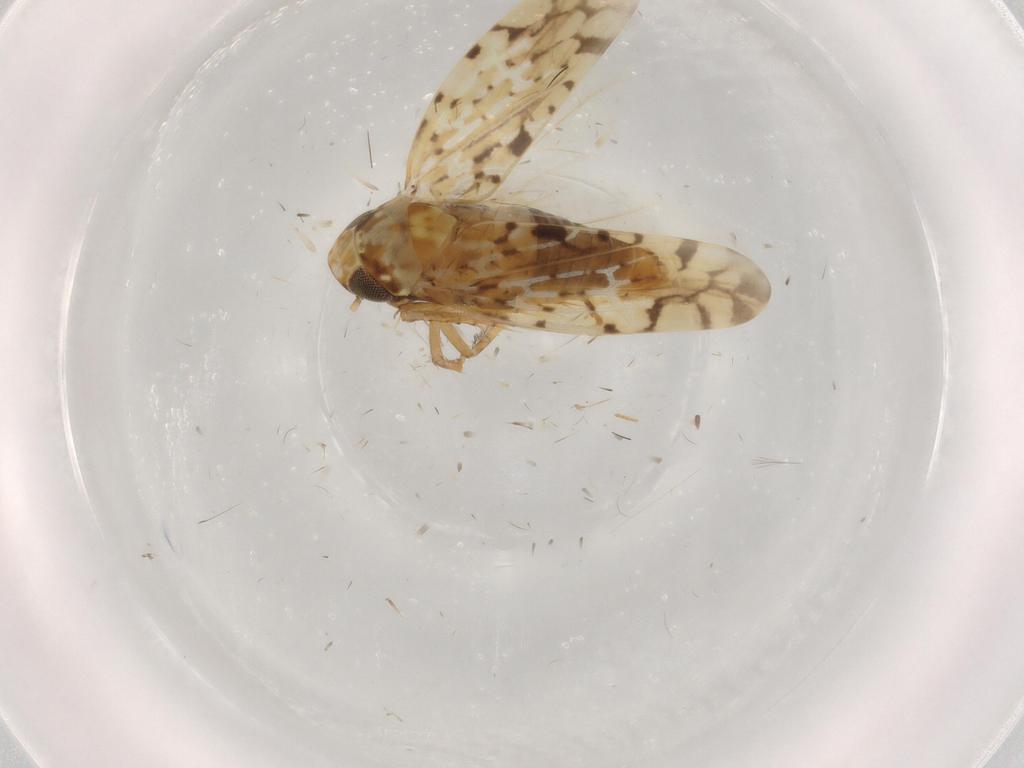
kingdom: Animalia
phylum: Arthropoda
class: Insecta
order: Hemiptera
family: Cicadellidae
